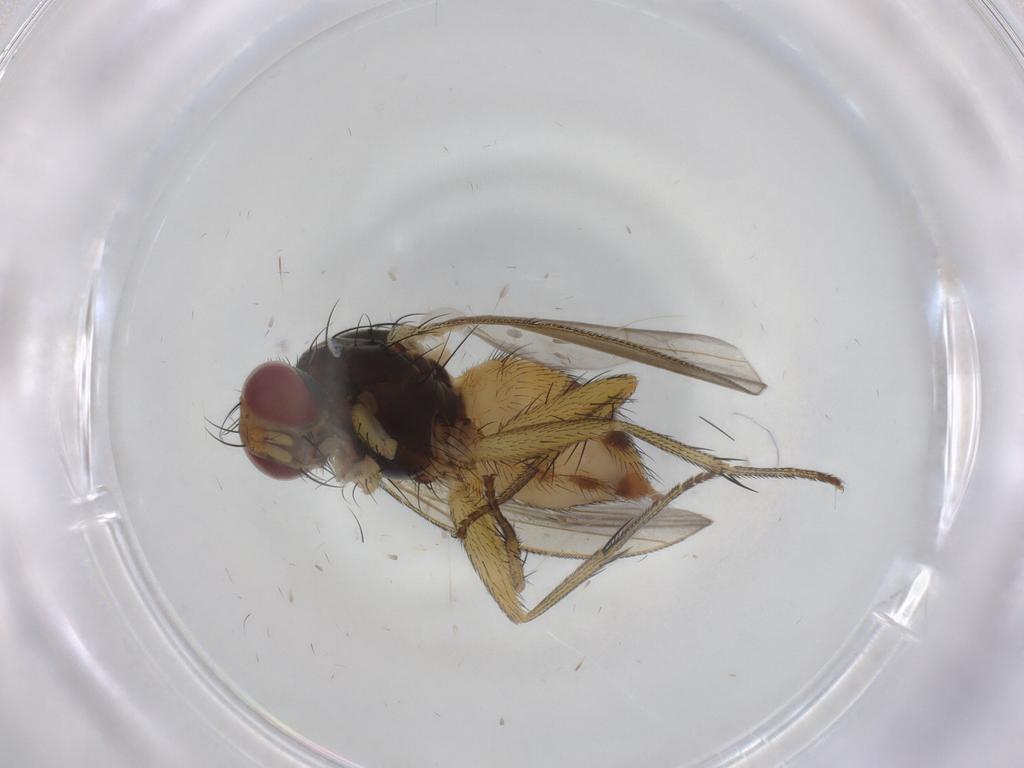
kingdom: Animalia
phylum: Arthropoda
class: Insecta
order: Diptera
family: Muscidae
